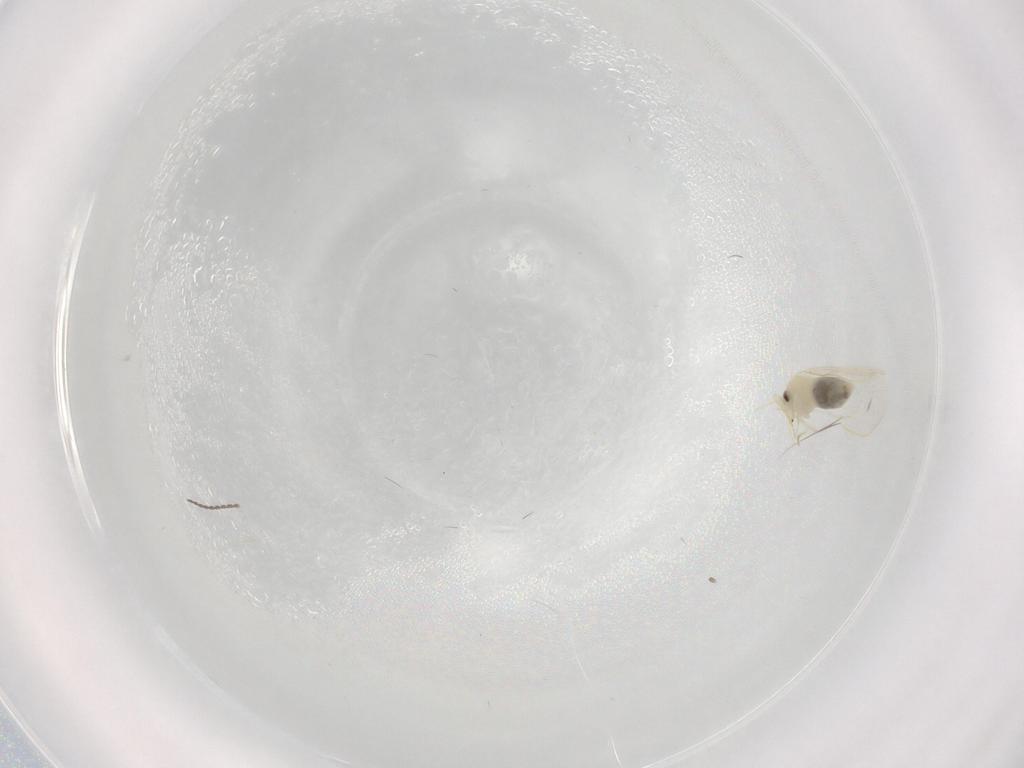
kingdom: Animalia
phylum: Arthropoda
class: Insecta
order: Hemiptera
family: Aleyrodidae
